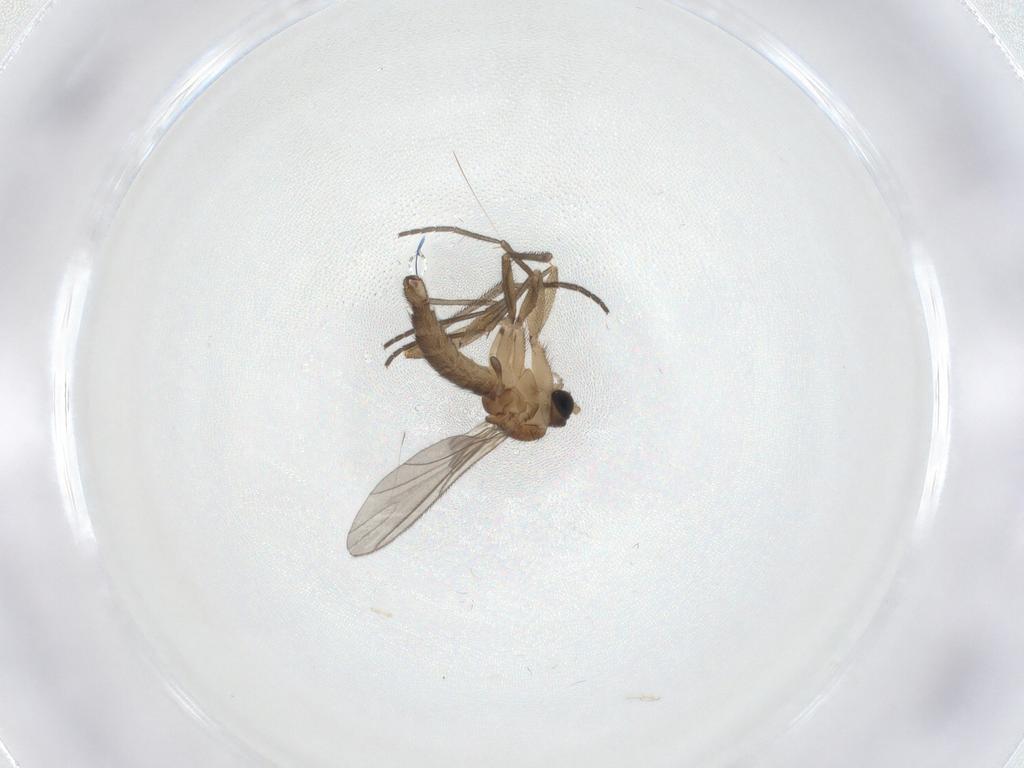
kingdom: Animalia
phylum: Arthropoda
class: Insecta
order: Diptera
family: Sciaridae
